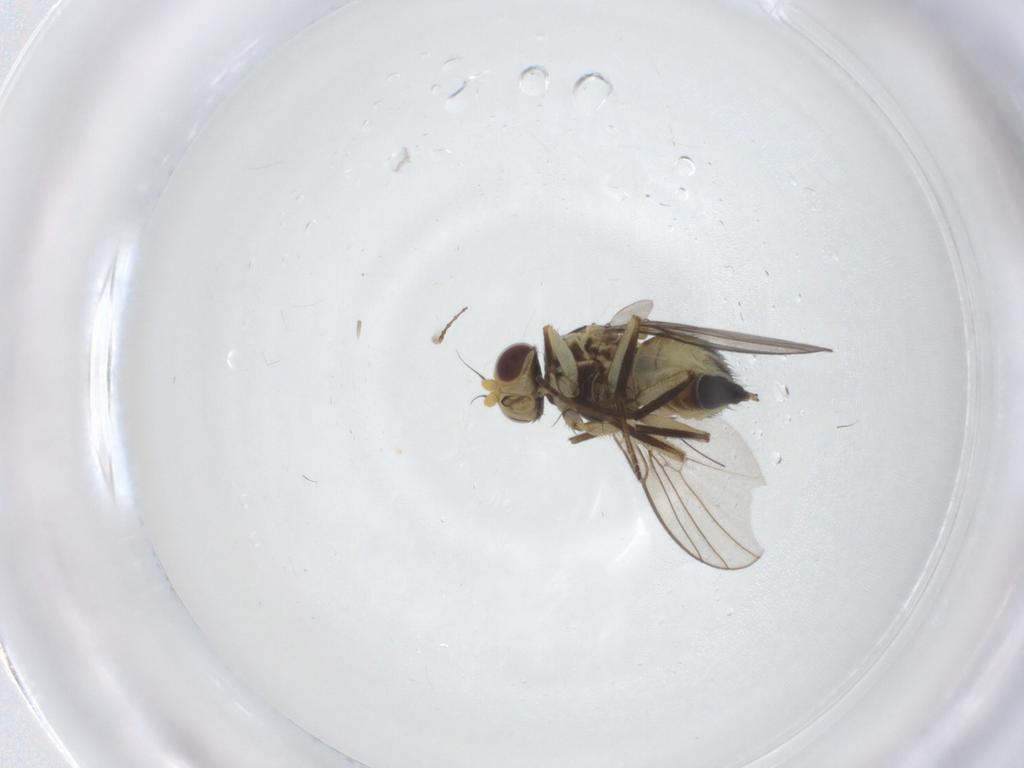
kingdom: Animalia
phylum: Arthropoda
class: Insecta
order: Diptera
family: Agromyzidae
